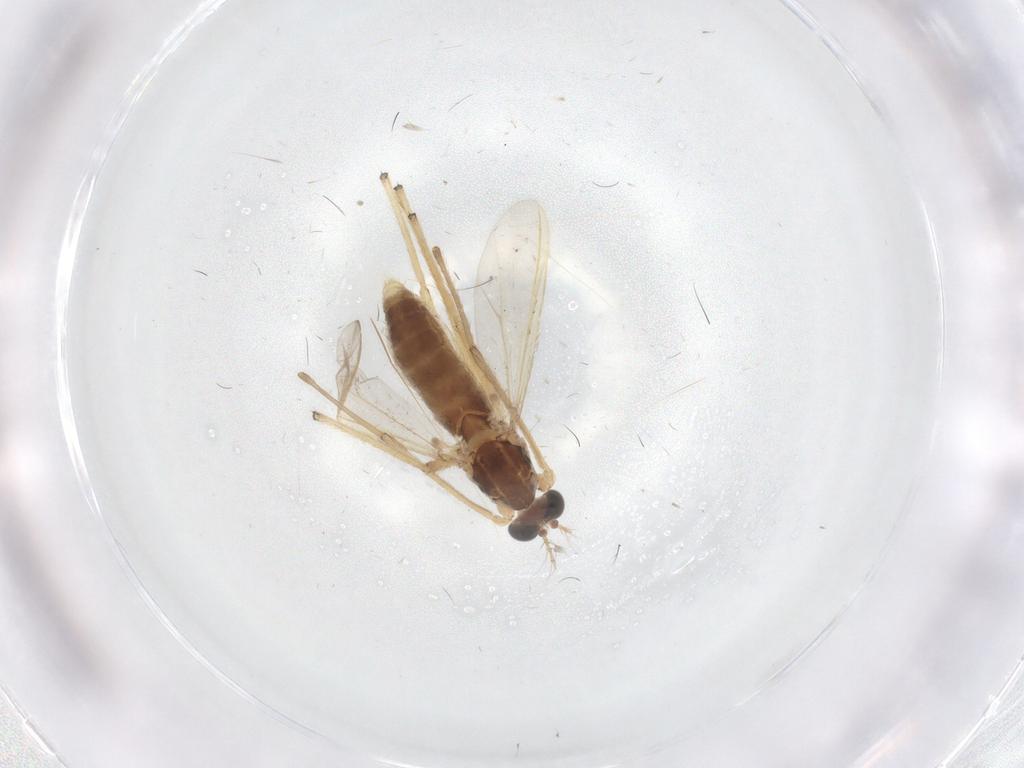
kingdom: Animalia
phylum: Arthropoda
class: Insecta
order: Diptera
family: Chironomidae
